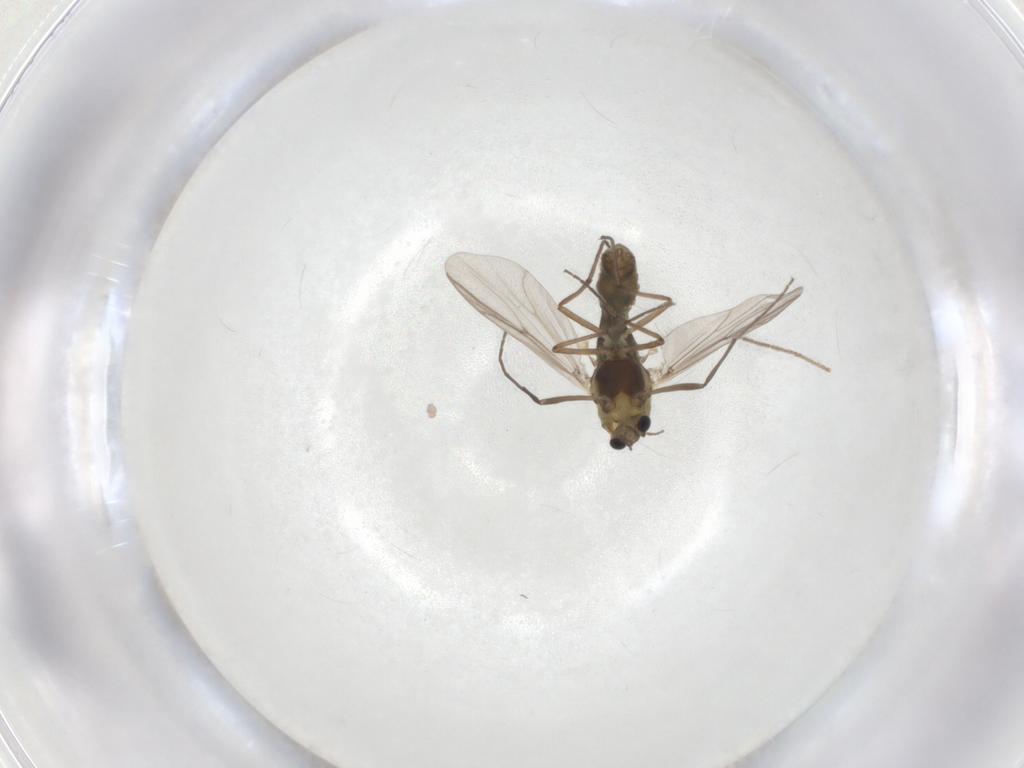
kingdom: Animalia
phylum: Arthropoda
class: Insecta
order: Diptera
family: Chironomidae
